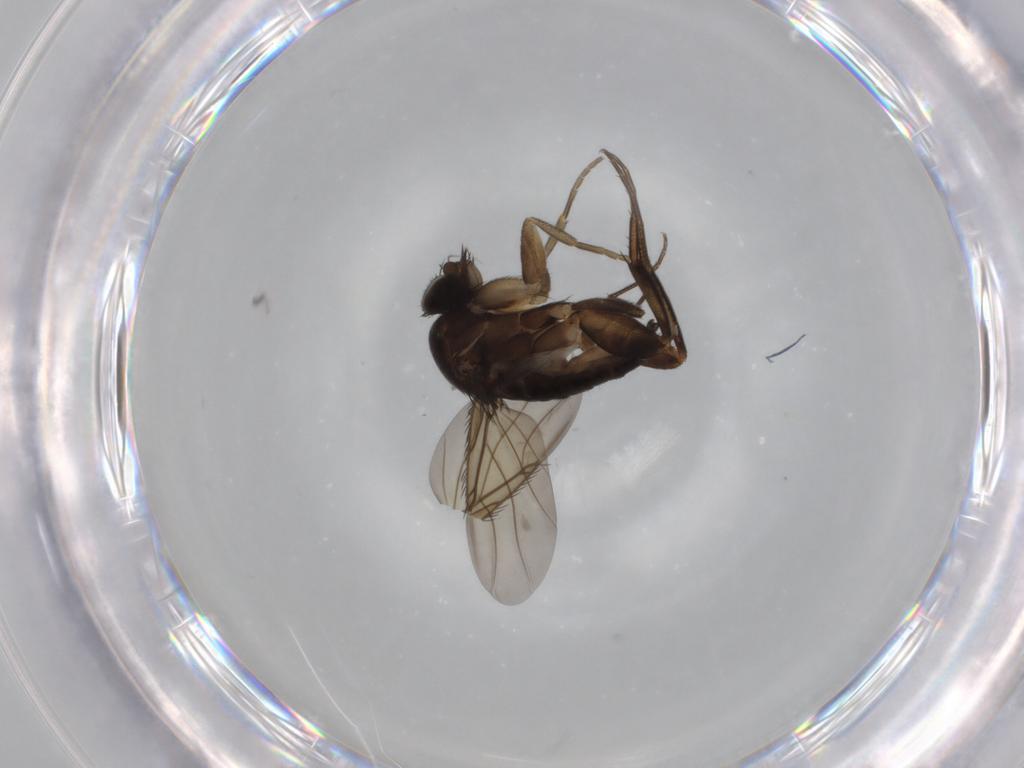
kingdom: Animalia
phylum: Arthropoda
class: Insecta
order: Diptera
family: Phoridae
